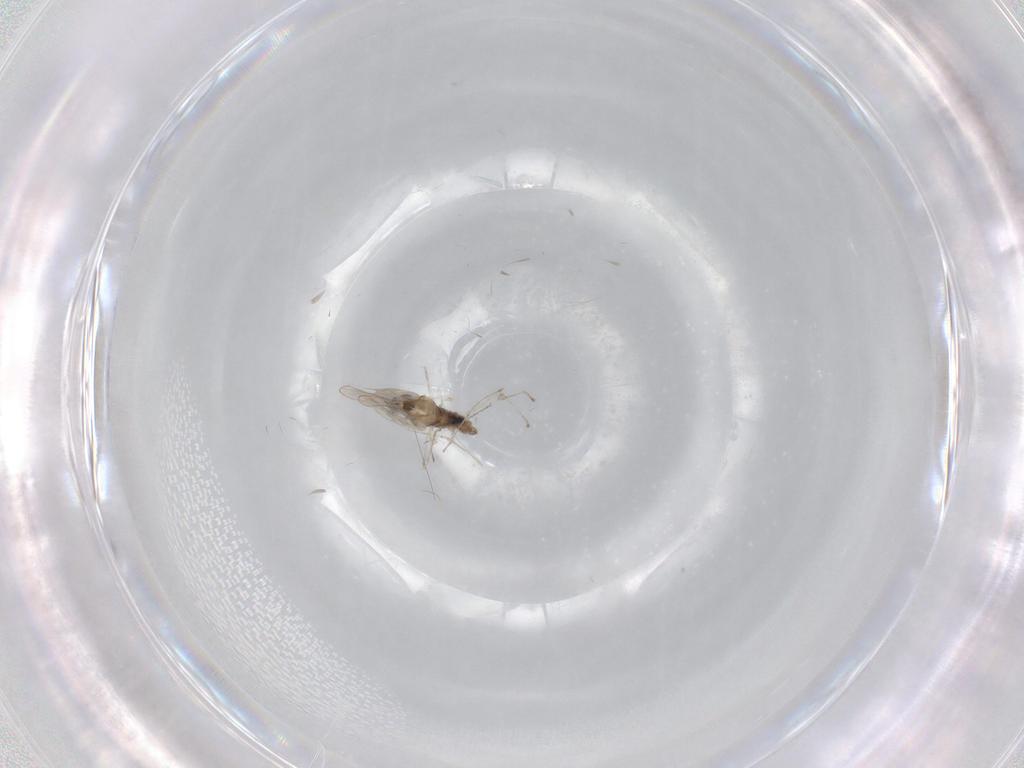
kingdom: Animalia
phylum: Arthropoda
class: Insecta
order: Diptera
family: Cecidomyiidae
